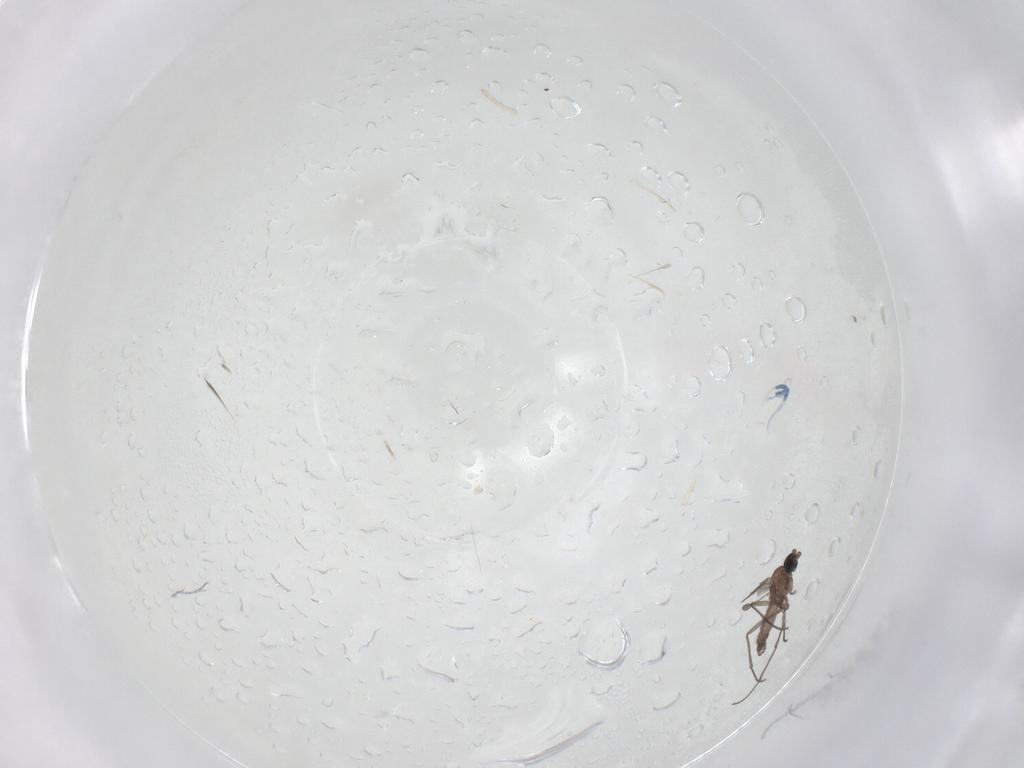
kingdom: Animalia
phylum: Arthropoda
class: Insecta
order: Diptera
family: Sciaridae
